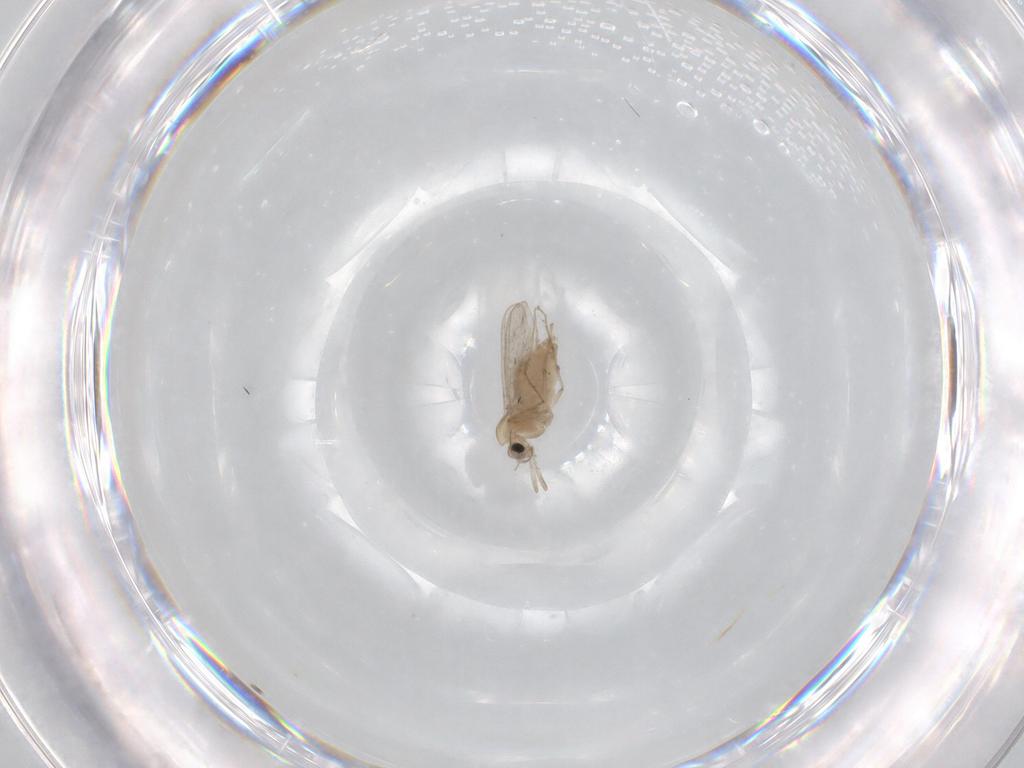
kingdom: Animalia
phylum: Arthropoda
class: Insecta
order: Diptera
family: Chironomidae
